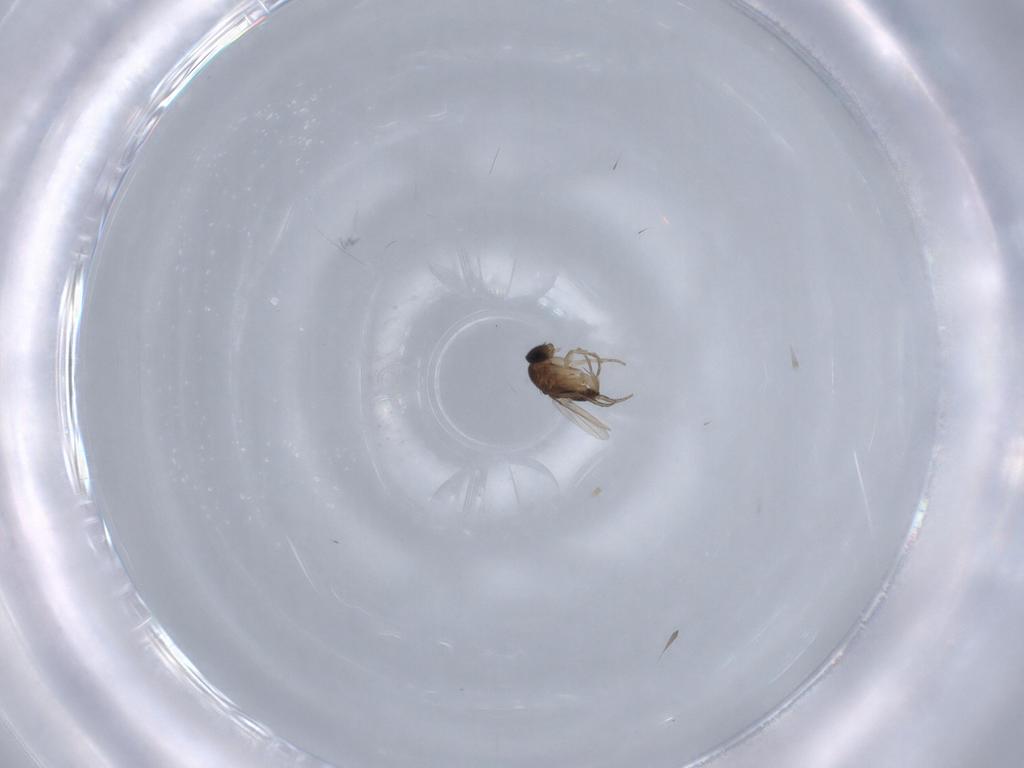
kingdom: Animalia
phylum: Arthropoda
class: Insecta
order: Diptera
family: Phoridae
